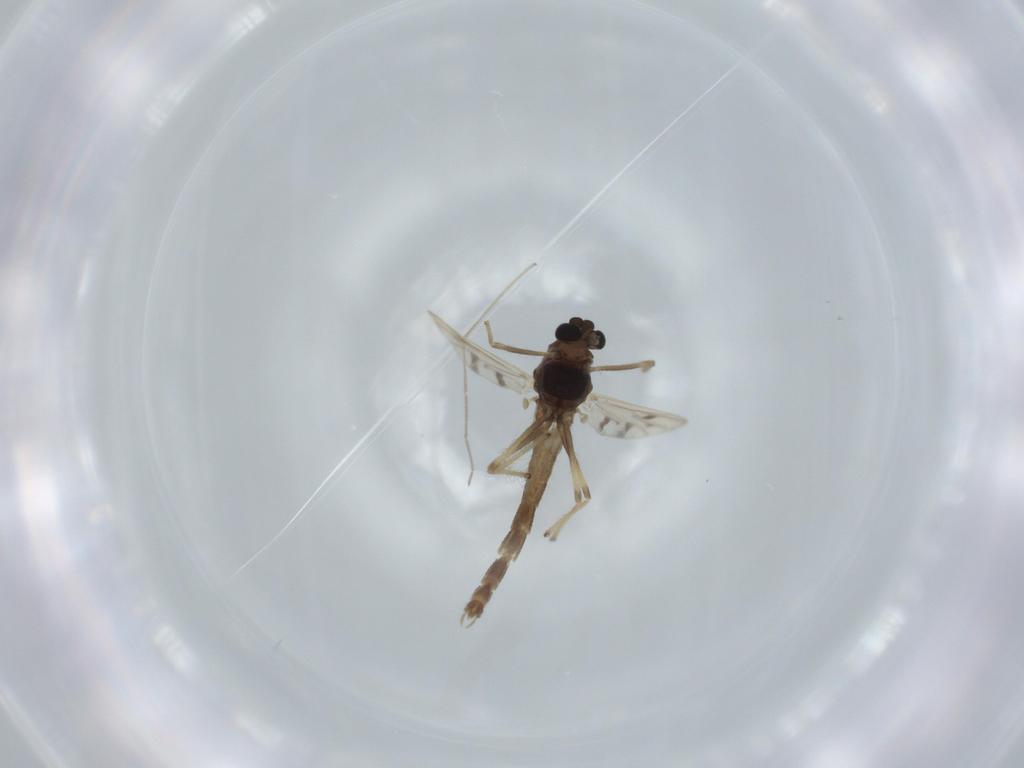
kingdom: Animalia
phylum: Arthropoda
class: Insecta
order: Diptera
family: Chironomidae
